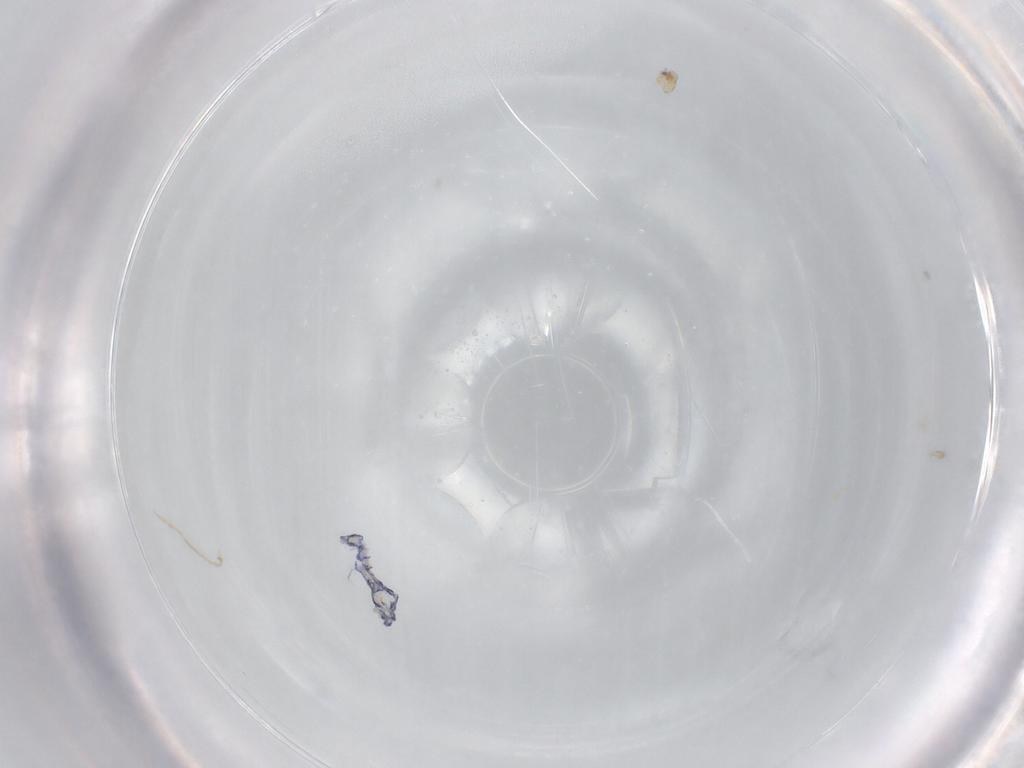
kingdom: Animalia
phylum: Arthropoda
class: Collembola
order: Entomobryomorpha
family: Entomobryidae
